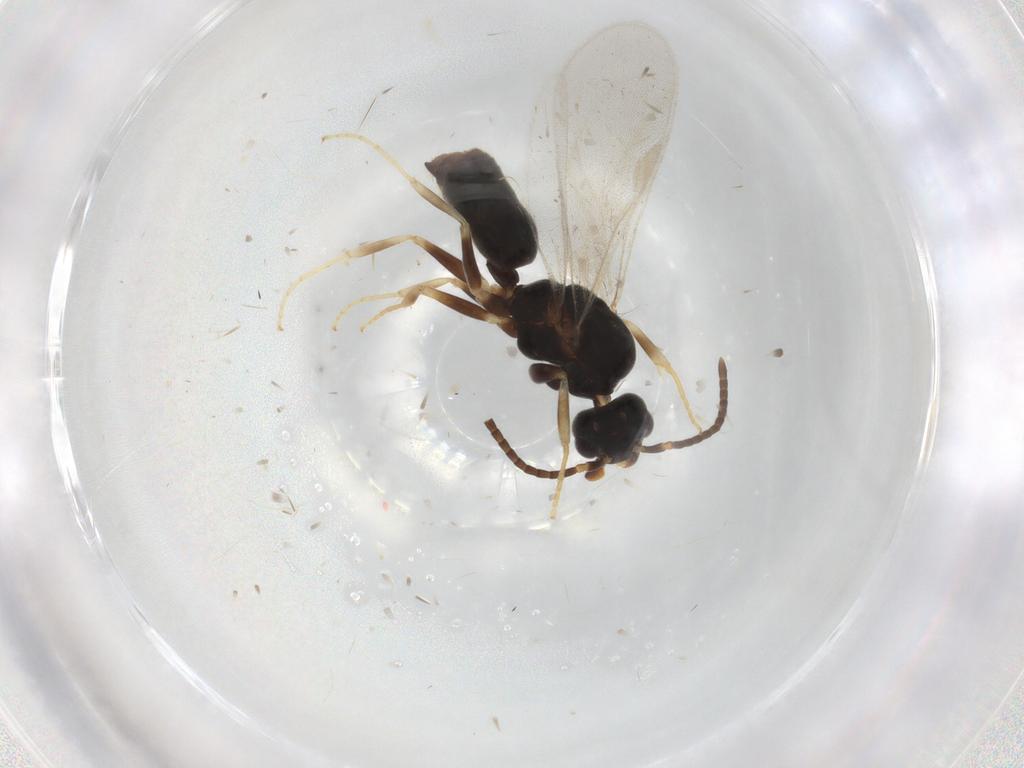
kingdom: Animalia
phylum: Arthropoda
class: Insecta
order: Hymenoptera
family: Formicidae
